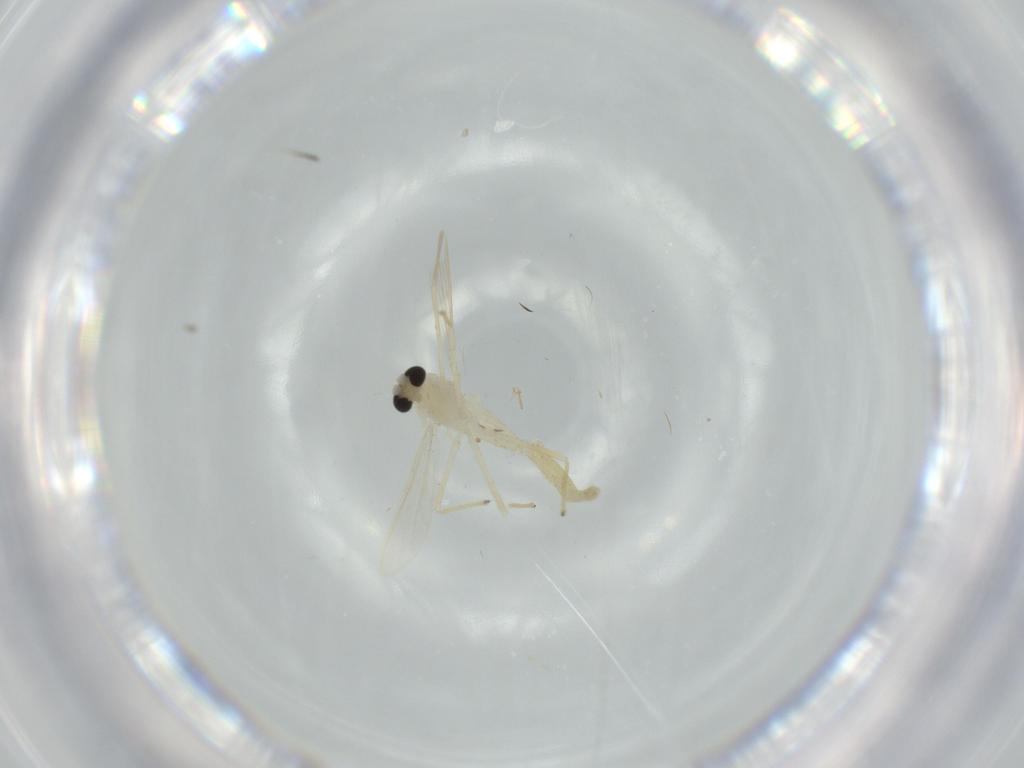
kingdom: Animalia
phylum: Arthropoda
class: Insecta
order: Diptera
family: Chironomidae
